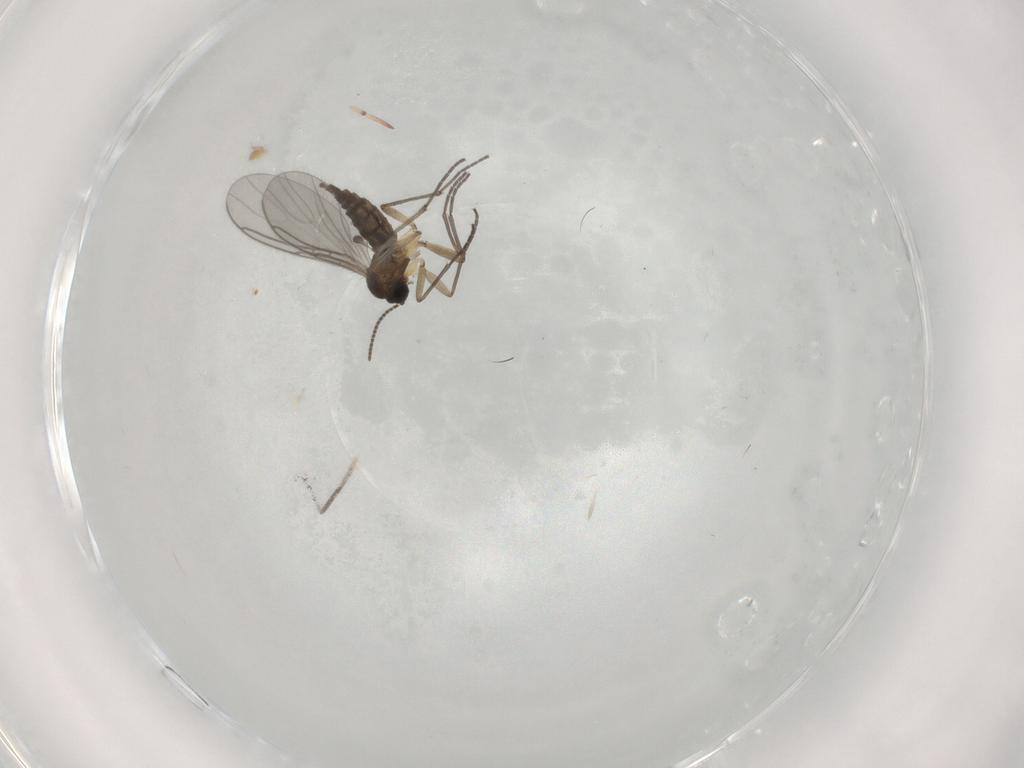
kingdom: Animalia
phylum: Arthropoda
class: Insecta
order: Diptera
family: Sciaridae
